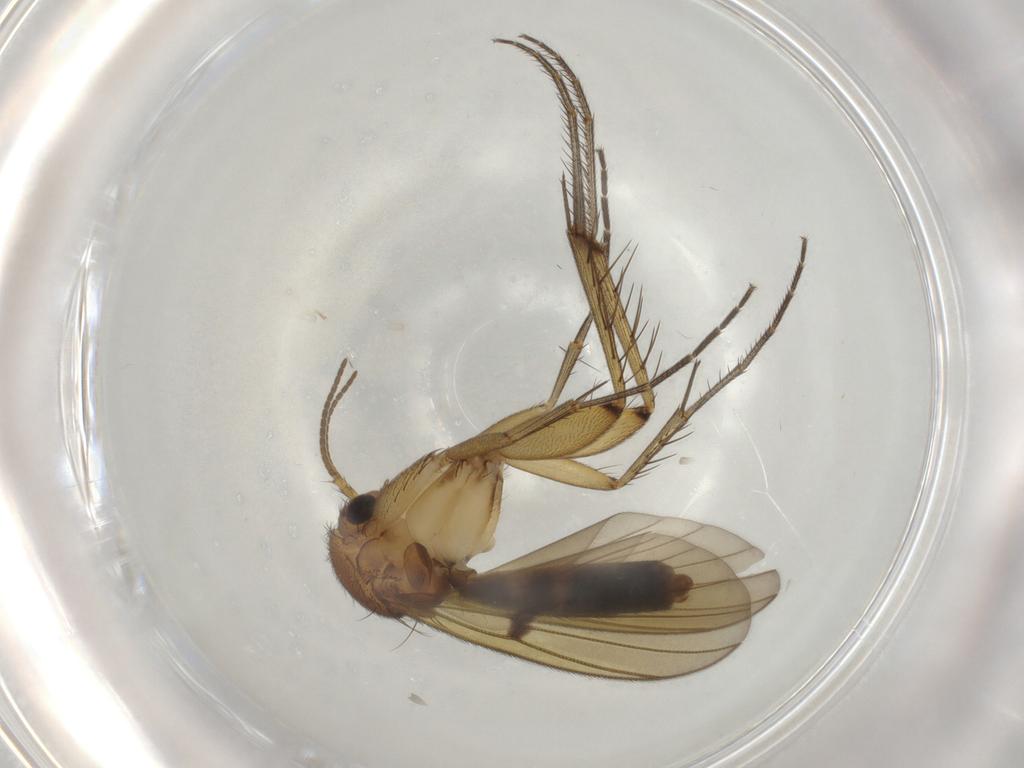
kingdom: Animalia
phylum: Arthropoda
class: Insecta
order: Diptera
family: Sciaridae
